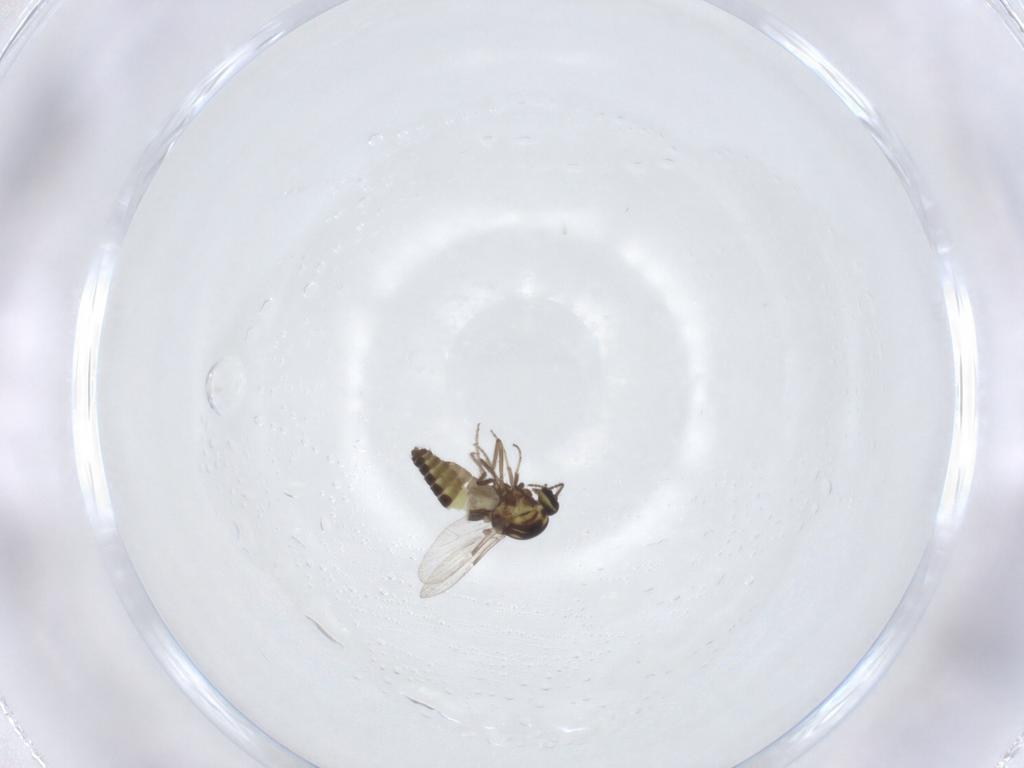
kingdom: Animalia
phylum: Arthropoda
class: Insecta
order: Diptera
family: Ceratopogonidae
